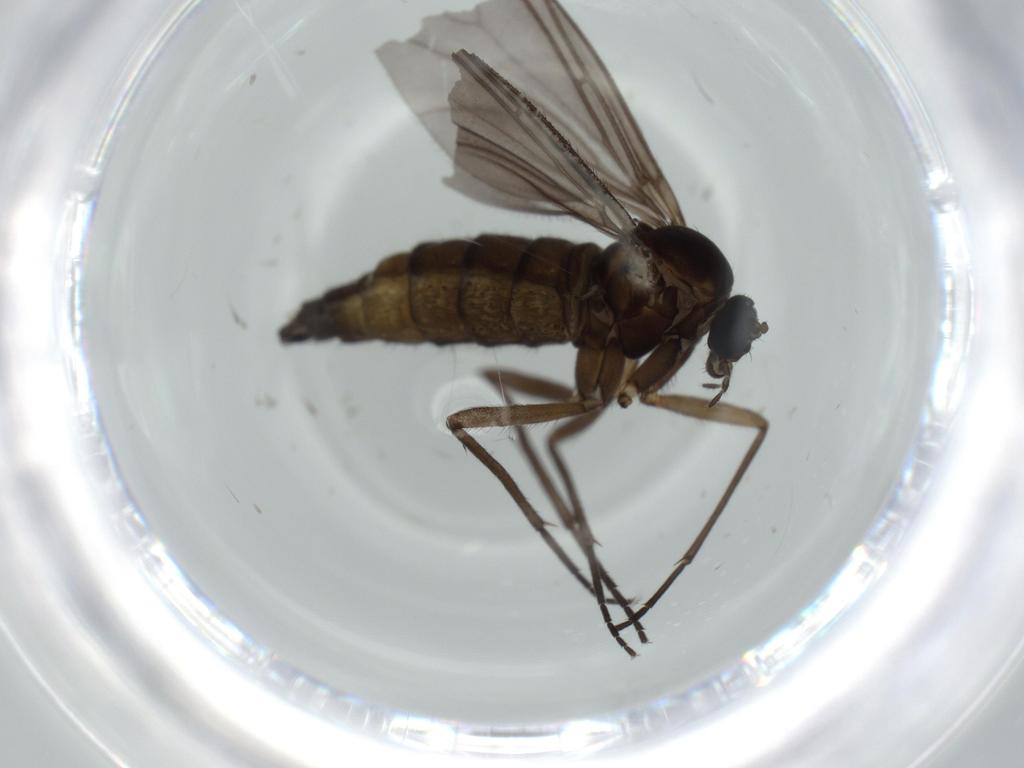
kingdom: Animalia
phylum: Arthropoda
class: Insecta
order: Diptera
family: Sciaridae
